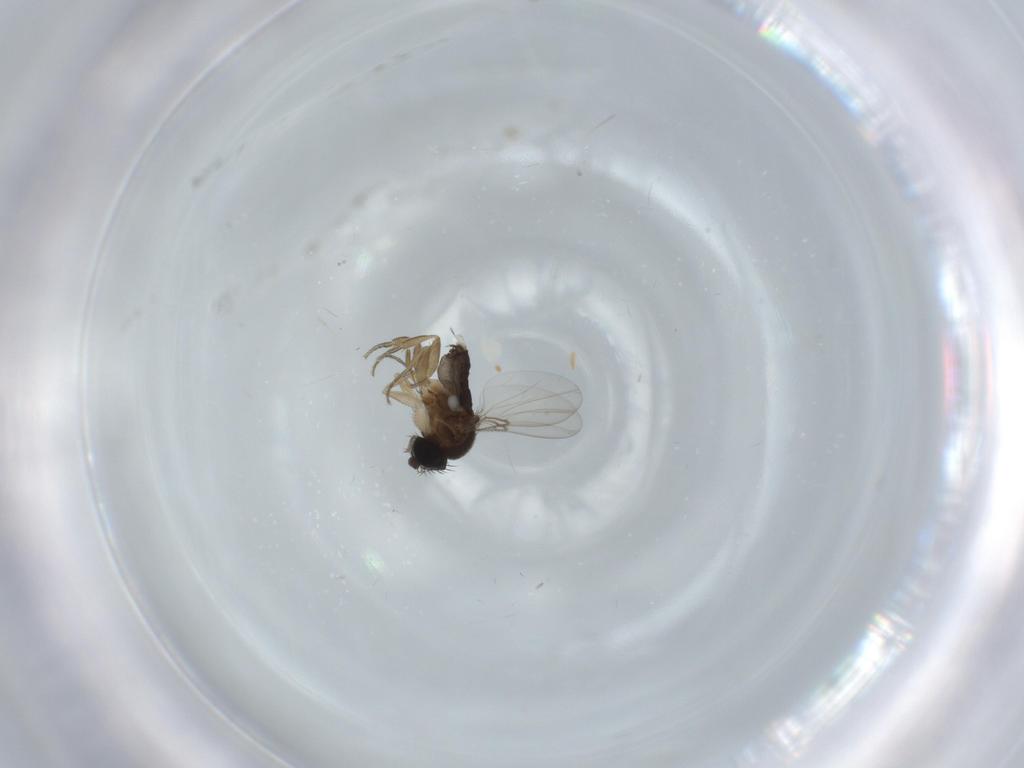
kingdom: Animalia
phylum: Arthropoda
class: Insecta
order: Diptera
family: Phoridae
